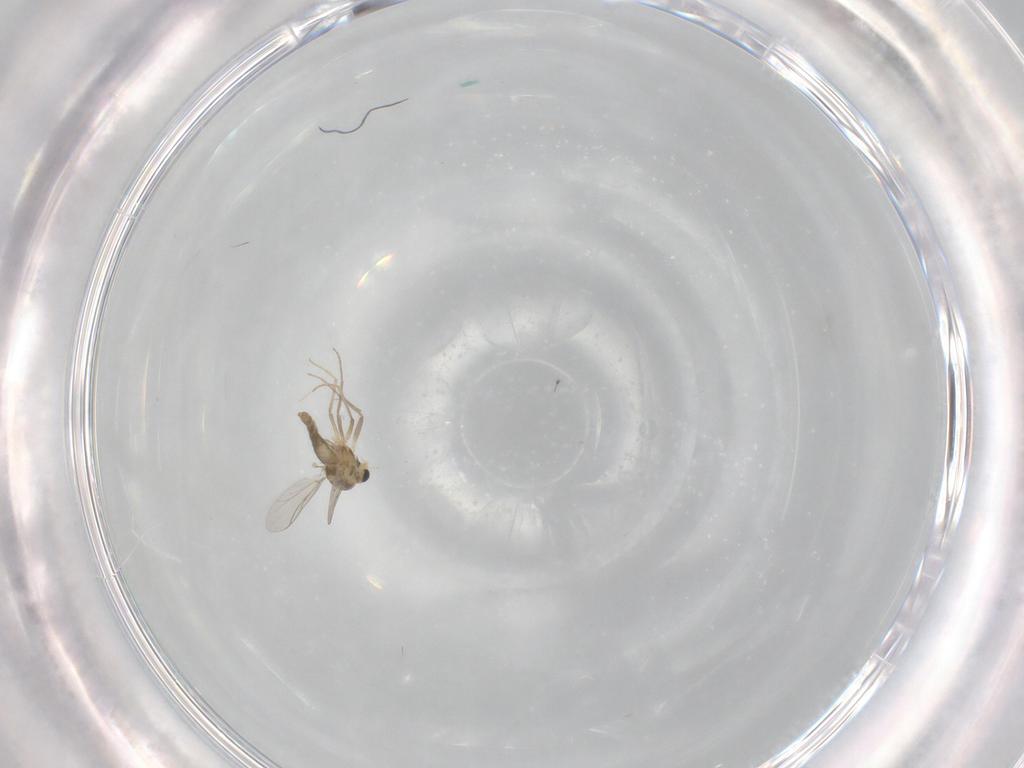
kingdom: Animalia
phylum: Arthropoda
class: Insecta
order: Diptera
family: Chironomidae
